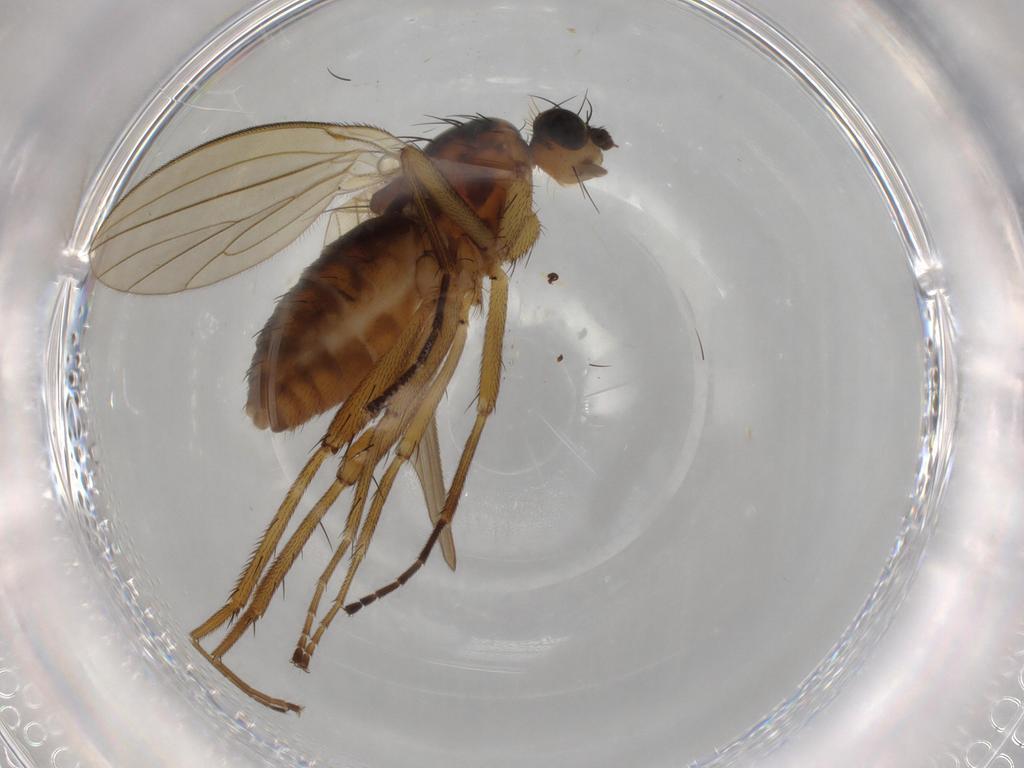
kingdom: Animalia
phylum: Arthropoda
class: Insecta
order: Diptera
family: Lonchopteridae
